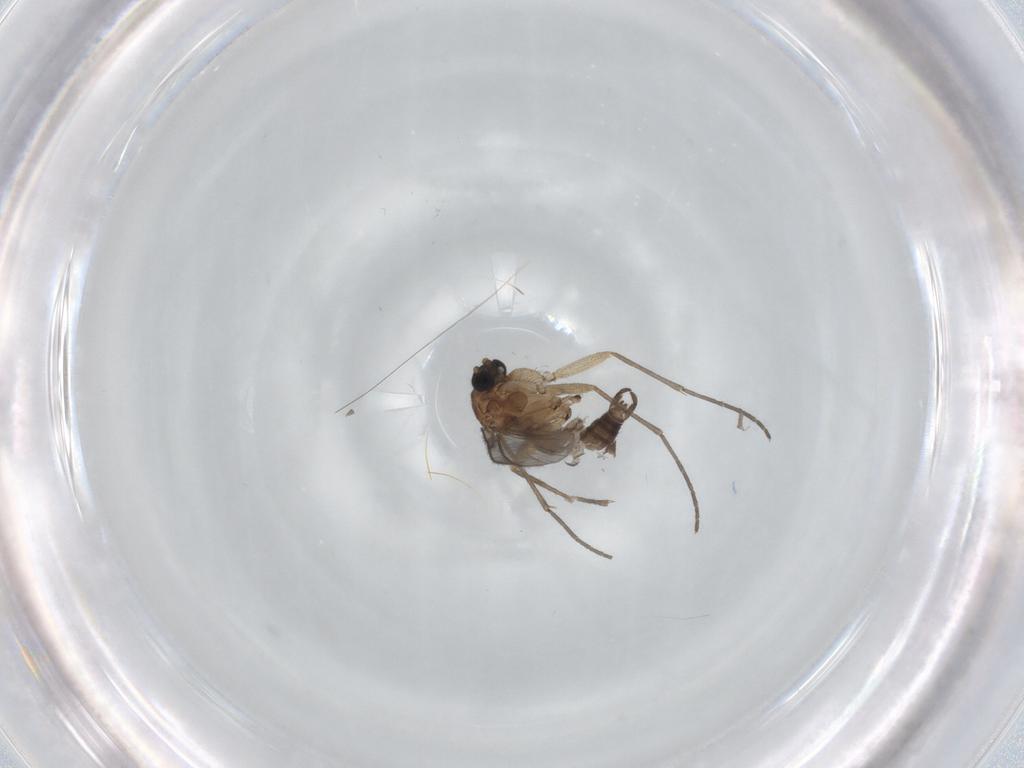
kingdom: Animalia
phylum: Arthropoda
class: Insecta
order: Diptera
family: Sciaridae
